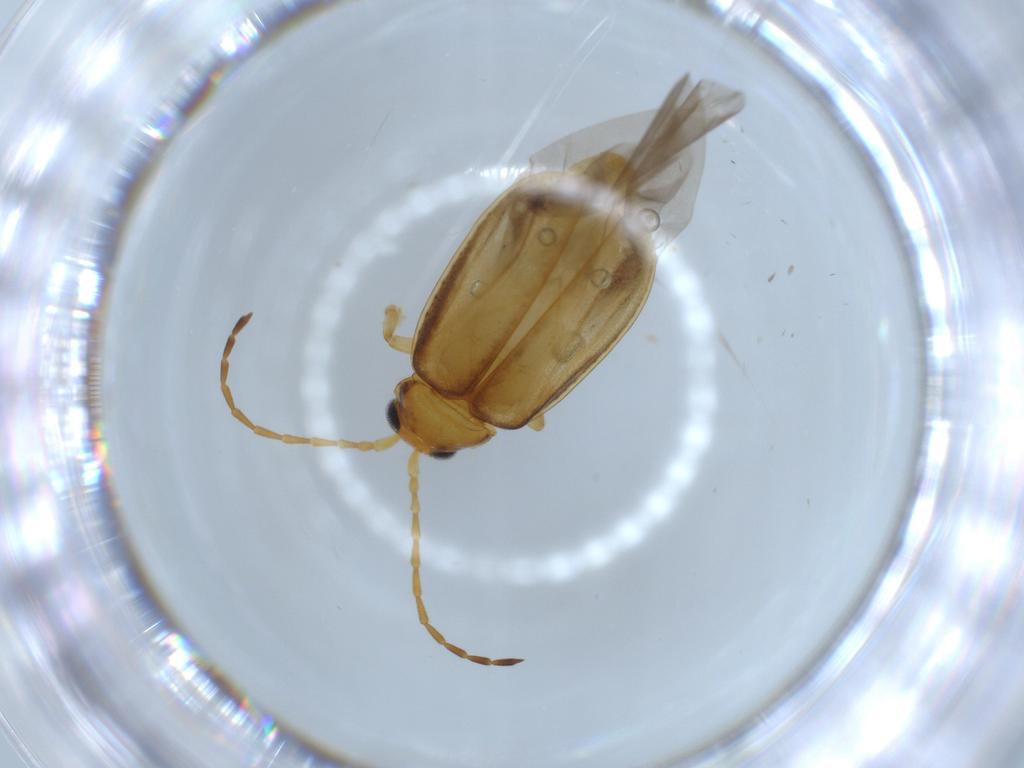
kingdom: Animalia
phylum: Arthropoda
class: Insecta
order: Coleoptera
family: Chrysomelidae
